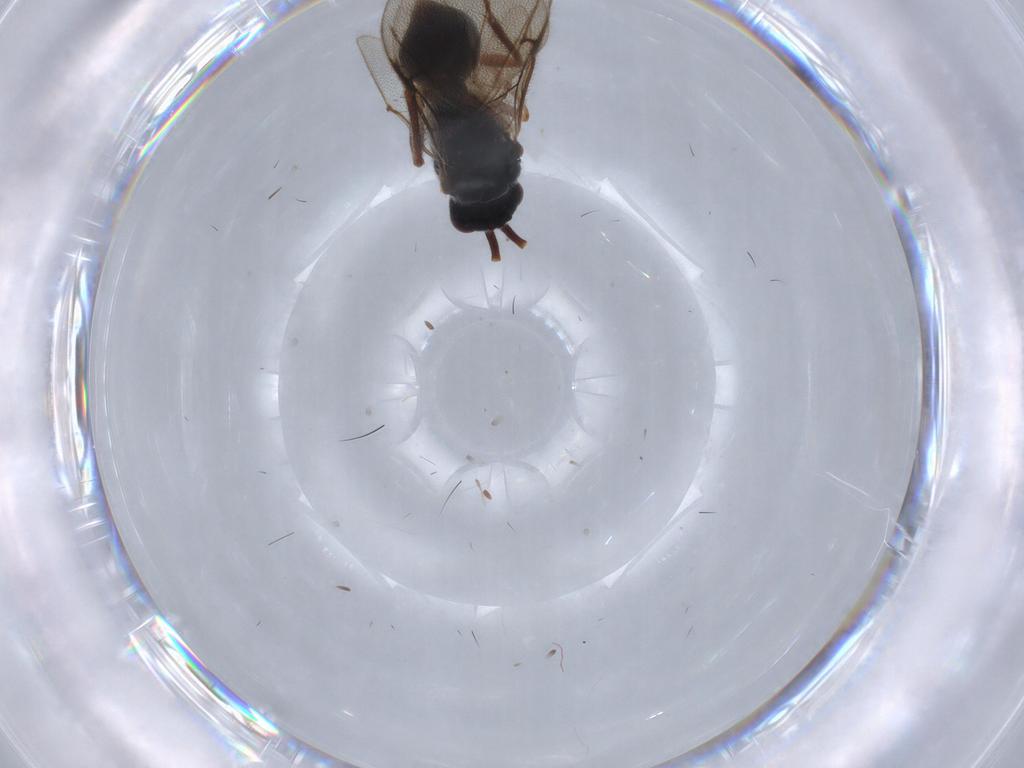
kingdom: Animalia
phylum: Arthropoda
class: Insecta
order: Hymenoptera
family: Diapriidae
